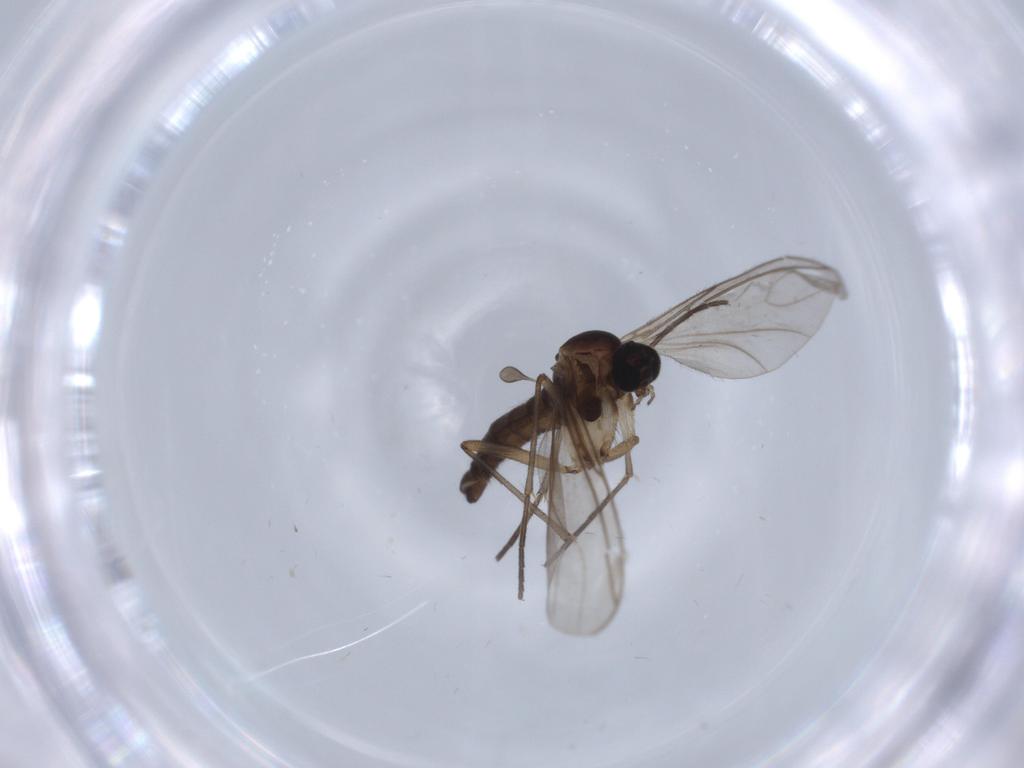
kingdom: Animalia
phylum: Arthropoda
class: Insecta
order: Diptera
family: Sciaridae
